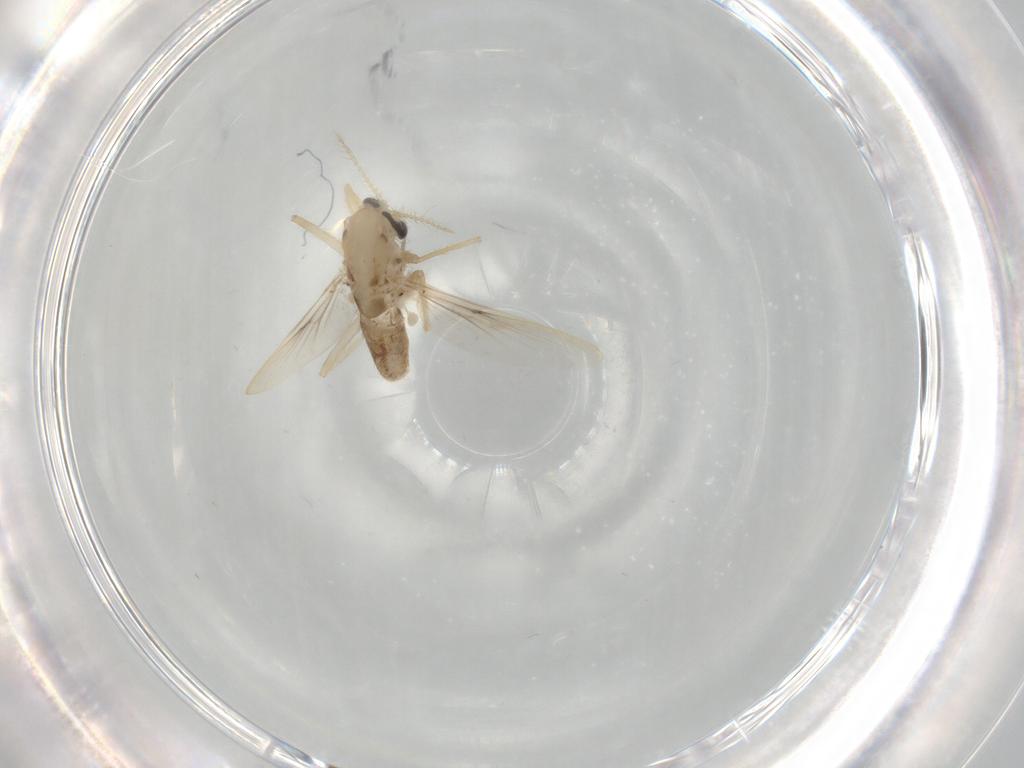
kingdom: Animalia
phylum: Arthropoda
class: Insecta
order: Diptera
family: Chironomidae
